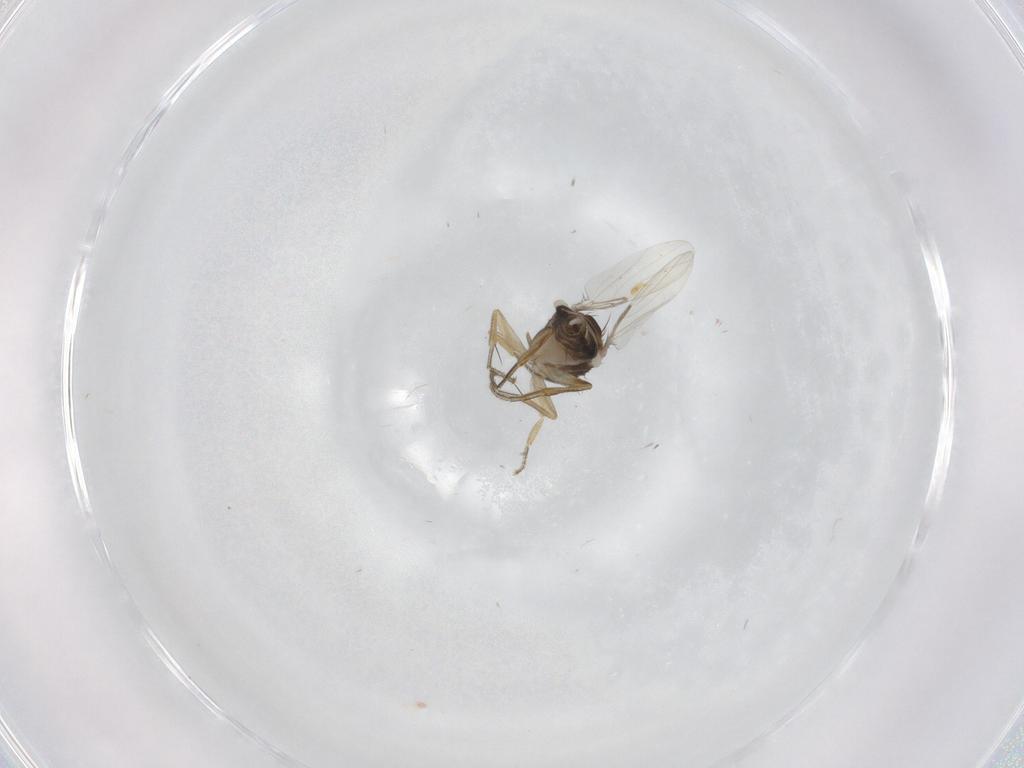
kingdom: Animalia
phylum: Arthropoda
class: Insecta
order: Diptera
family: Phoridae
